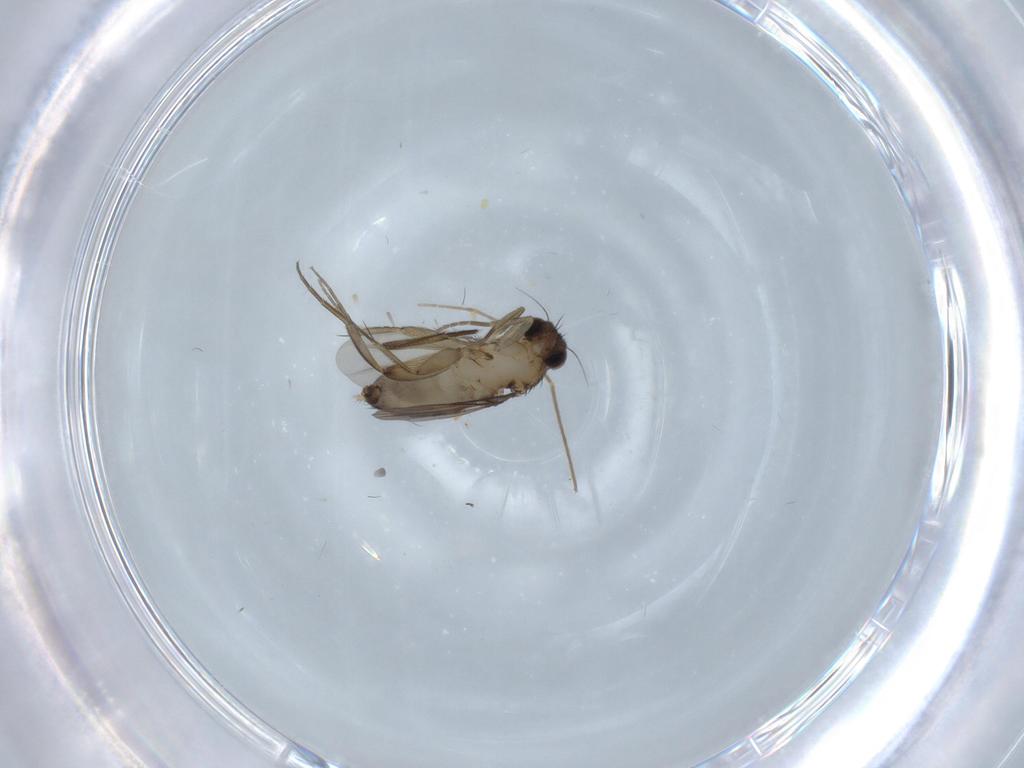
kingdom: Animalia
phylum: Arthropoda
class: Insecta
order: Diptera
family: Phoridae
